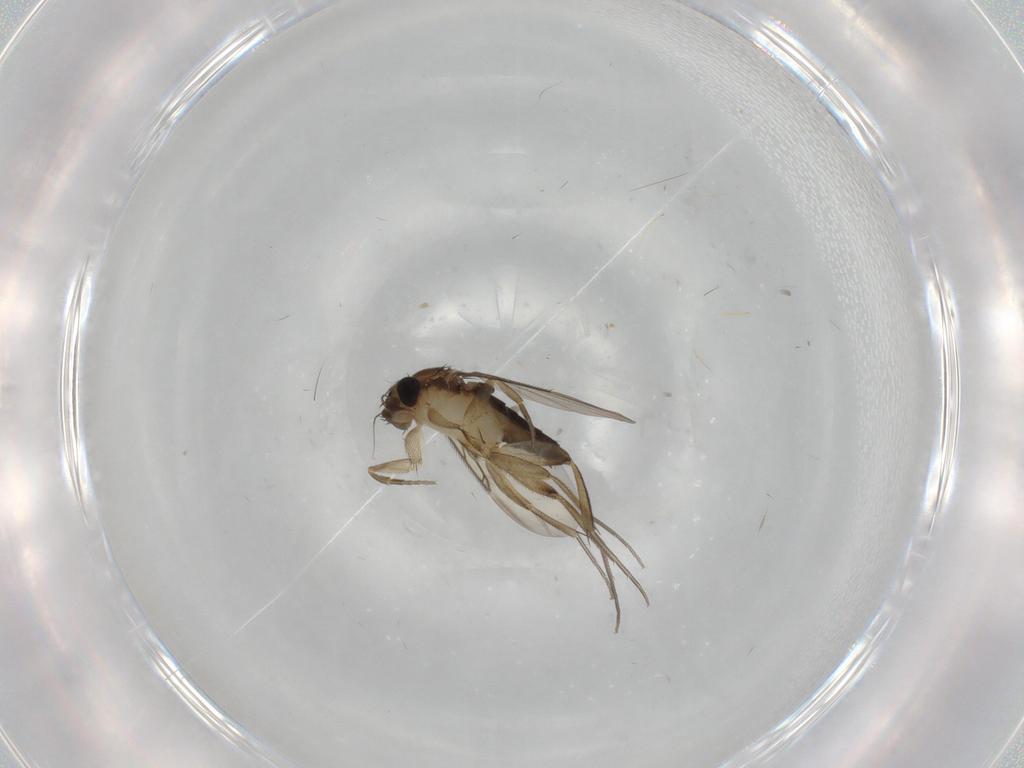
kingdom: Animalia
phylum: Arthropoda
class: Insecta
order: Diptera
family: Phoridae
